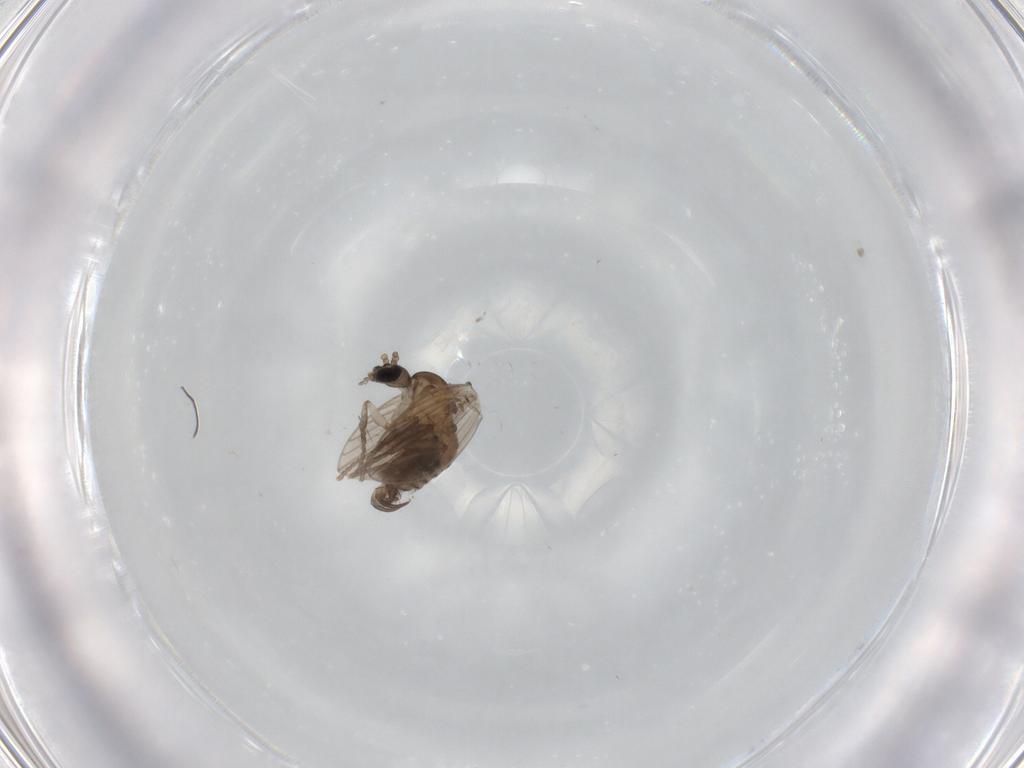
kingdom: Animalia
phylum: Arthropoda
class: Insecta
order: Diptera
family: Psychodidae
